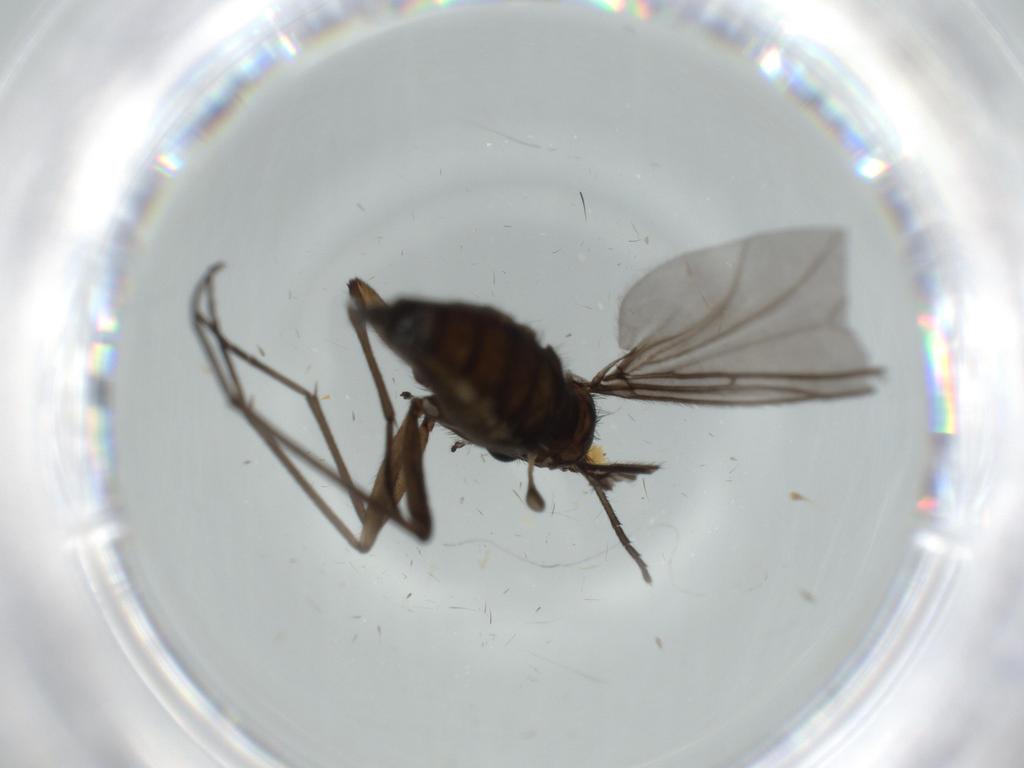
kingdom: Animalia
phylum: Arthropoda
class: Insecta
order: Diptera
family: Sciaridae
